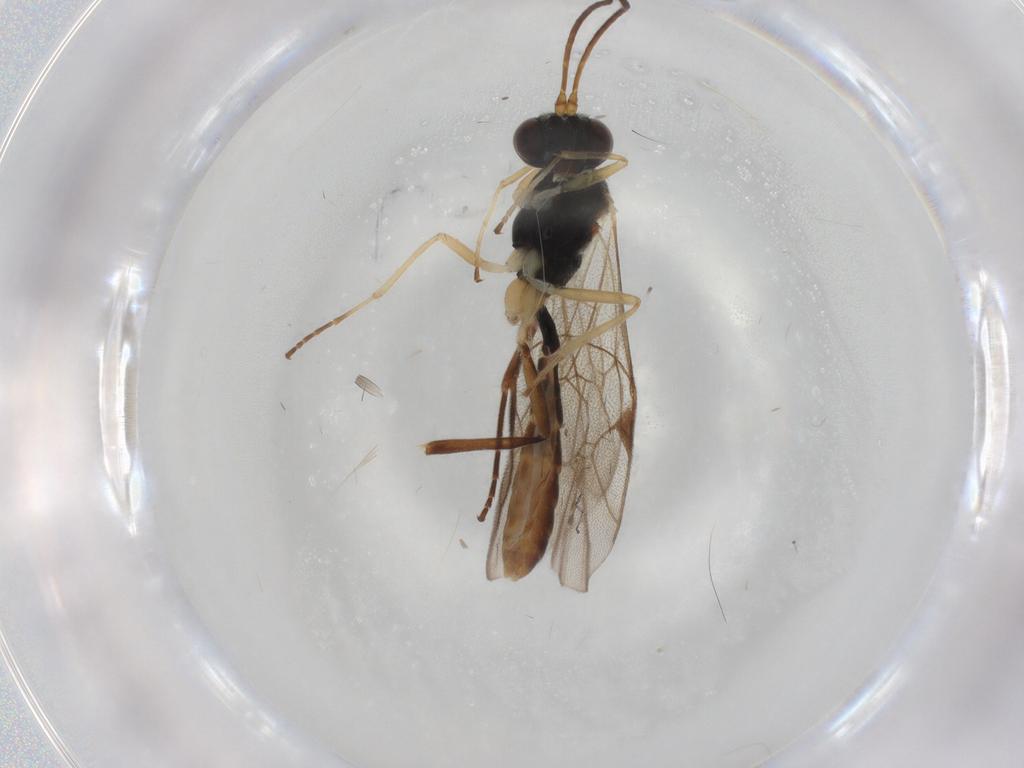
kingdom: Animalia
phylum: Arthropoda
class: Insecta
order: Hymenoptera
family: Ichneumonidae
